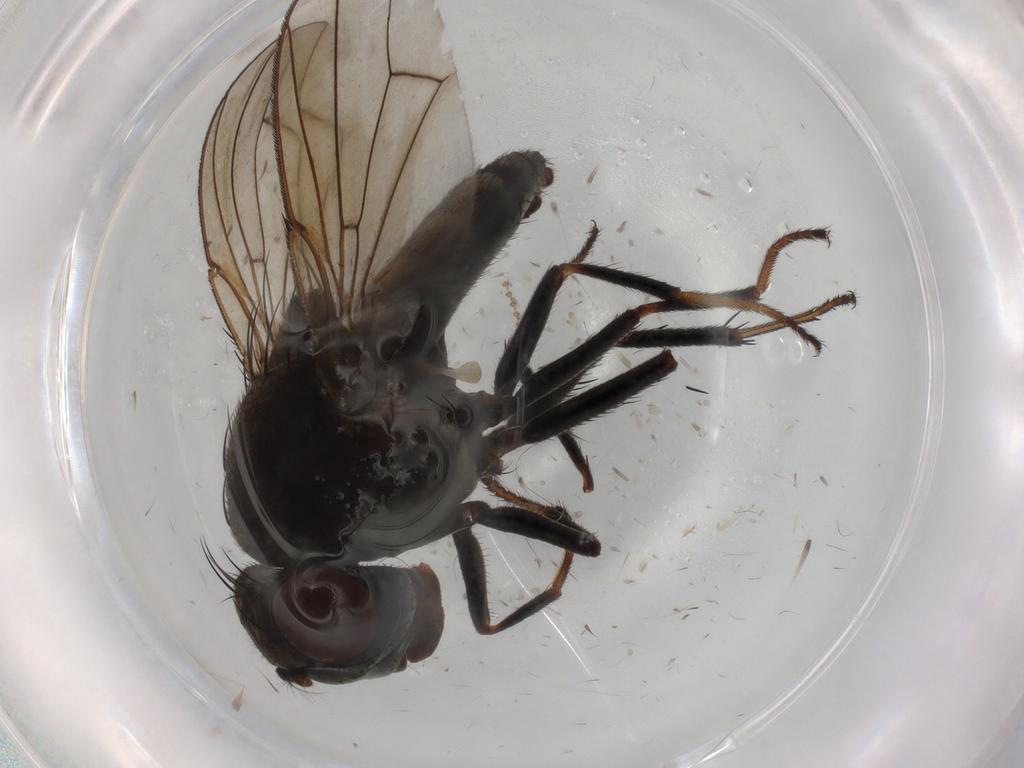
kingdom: Animalia
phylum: Arthropoda
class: Insecta
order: Diptera
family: Ephydridae
